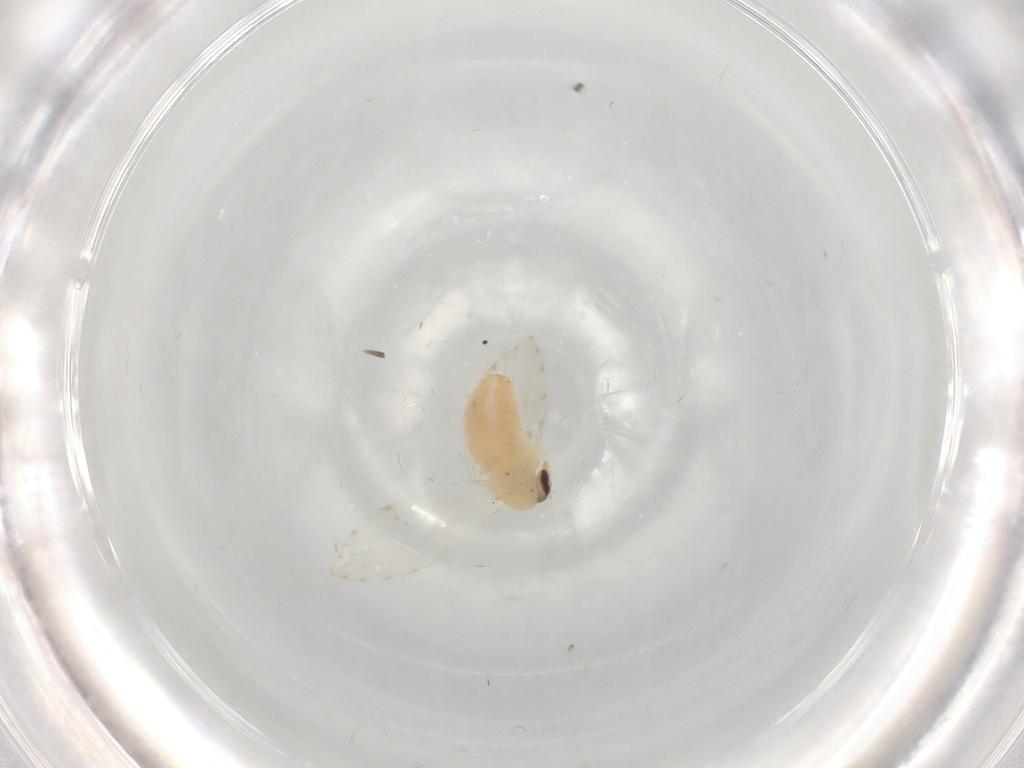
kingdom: Animalia
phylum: Arthropoda
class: Insecta
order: Diptera
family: Psychodidae
